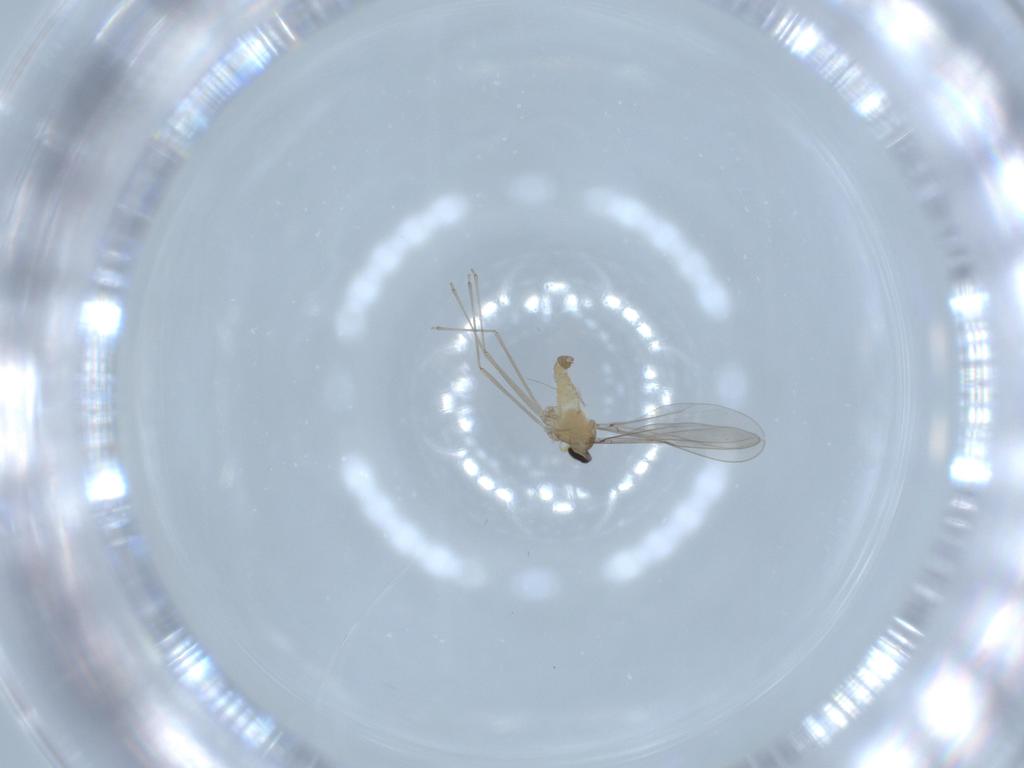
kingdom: Animalia
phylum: Arthropoda
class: Insecta
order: Diptera
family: Cecidomyiidae
